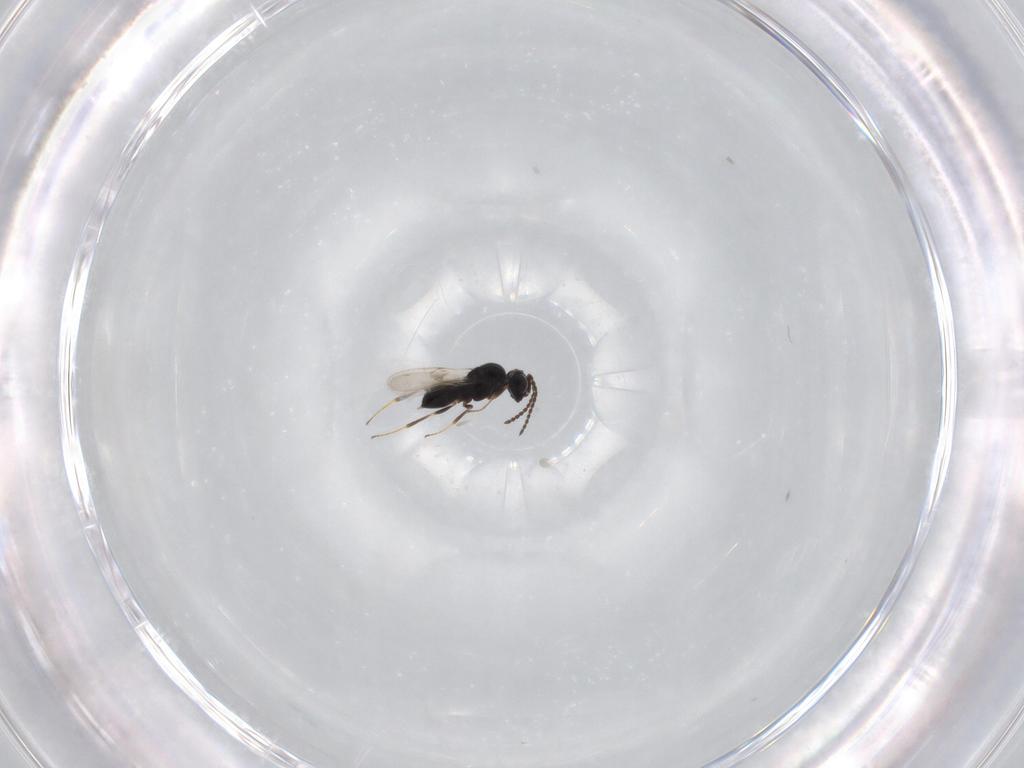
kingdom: Animalia
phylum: Arthropoda
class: Insecta
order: Hymenoptera
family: Scelionidae
